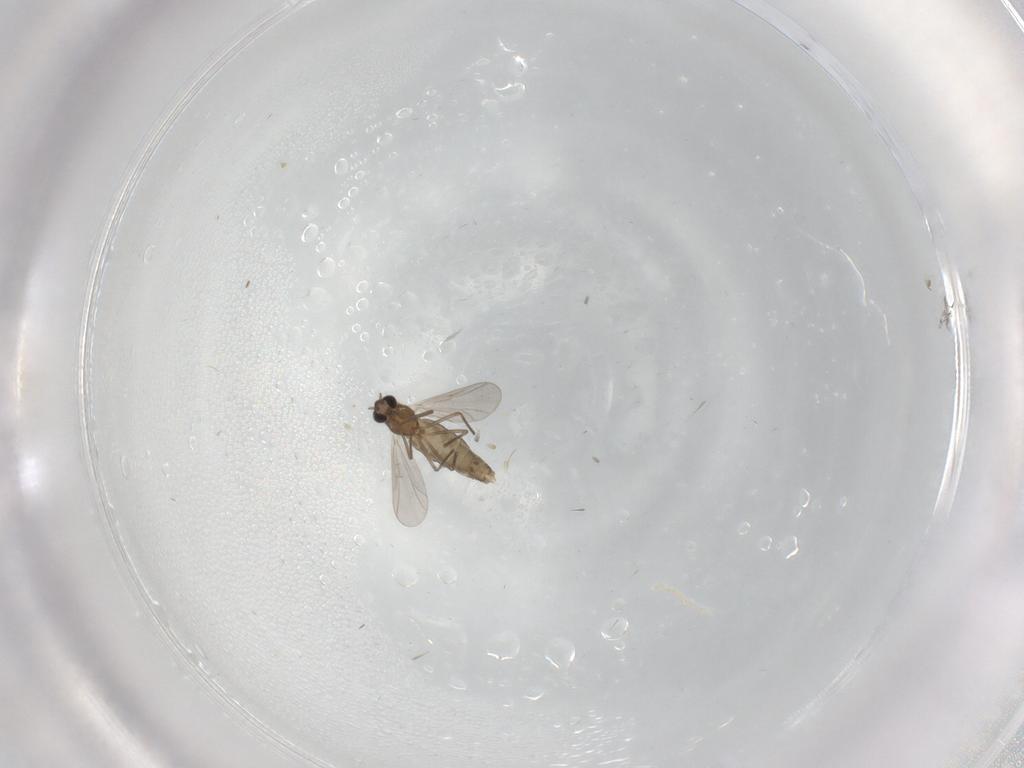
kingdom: Animalia
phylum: Arthropoda
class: Insecta
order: Diptera
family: Chironomidae
